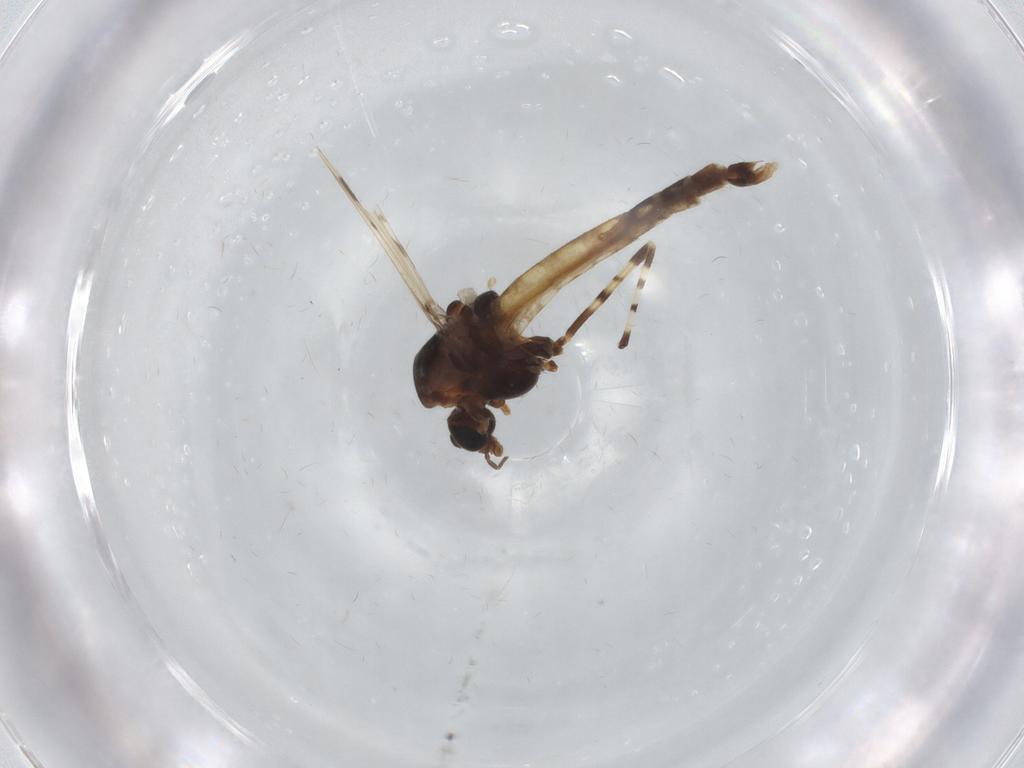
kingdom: Animalia
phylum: Arthropoda
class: Insecta
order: Diptera
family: Chironomidae
